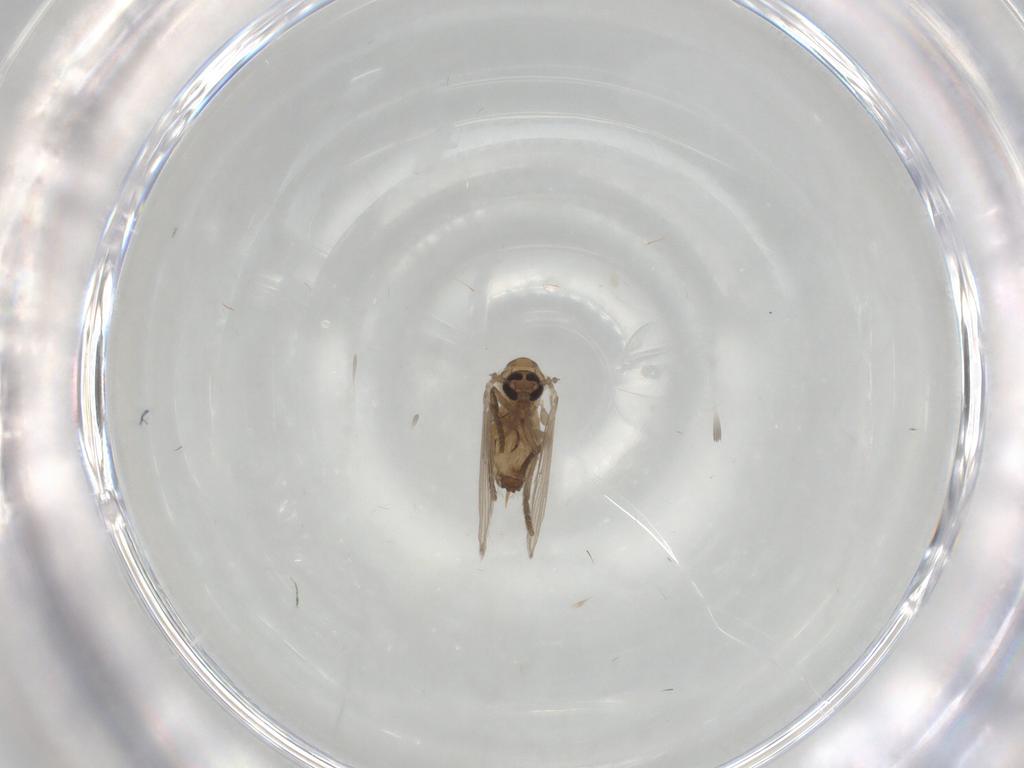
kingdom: Animalia
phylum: Arthropoda
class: Insecta
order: Diptera
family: Psychodidae
